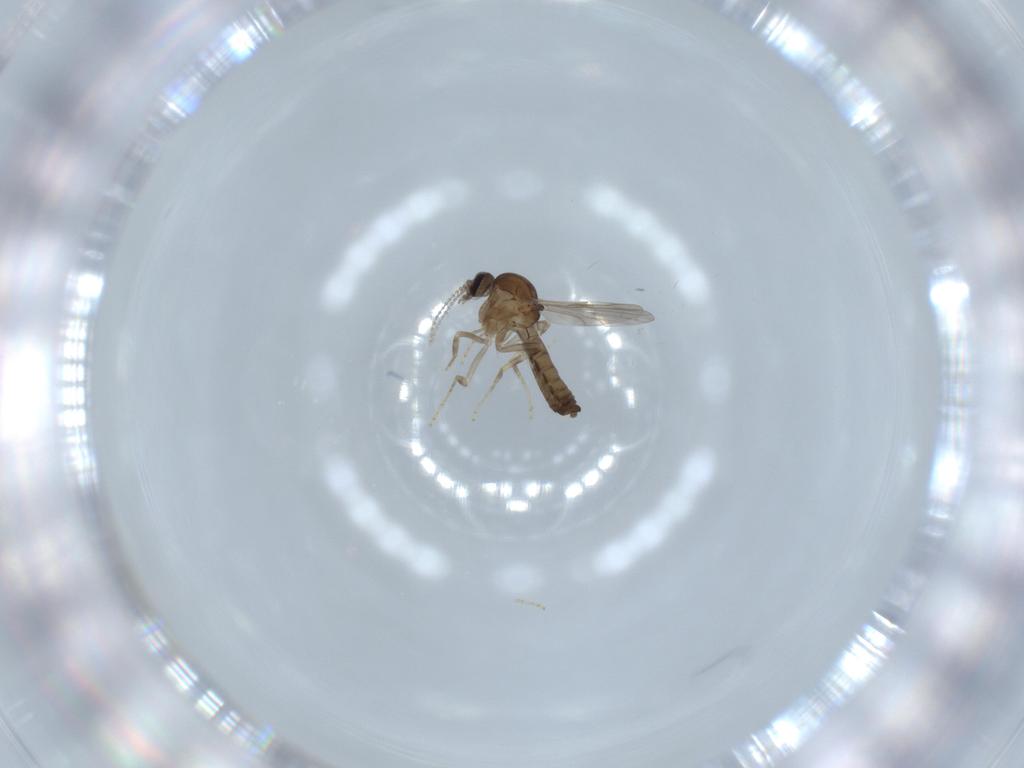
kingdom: Animalia
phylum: Arthropoda
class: Insecta
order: Diptera
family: Ceratopogonidae
